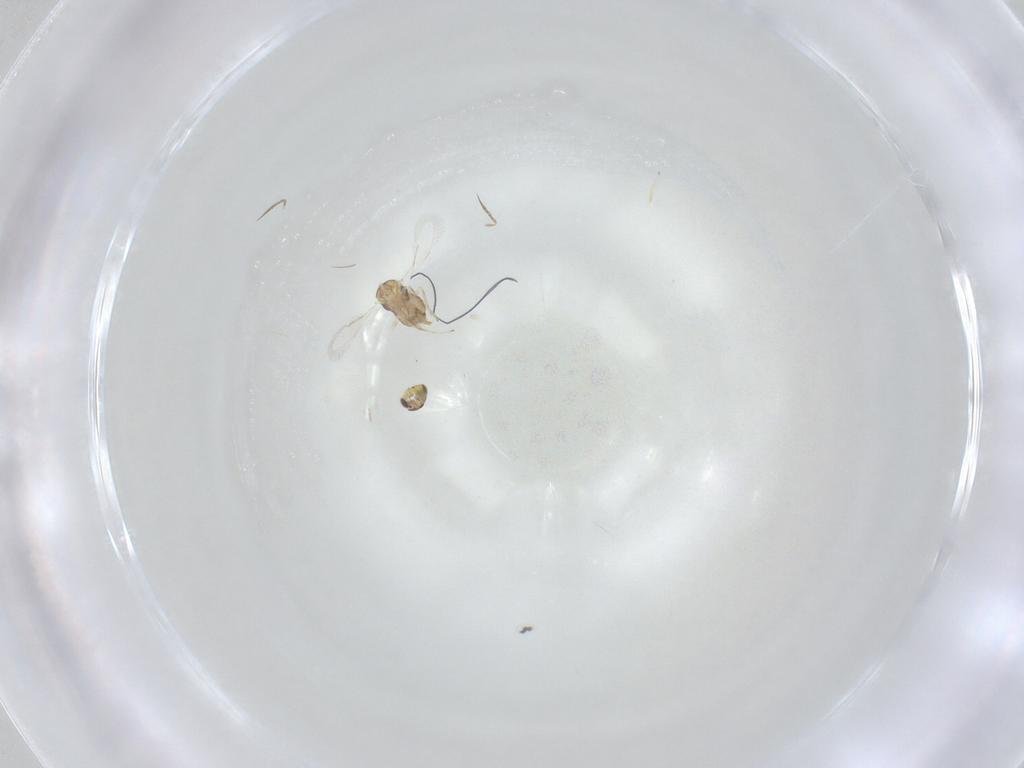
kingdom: Animalia
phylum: Arthropoda
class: Insecta
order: Hymenoptera
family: Aphelinidae
